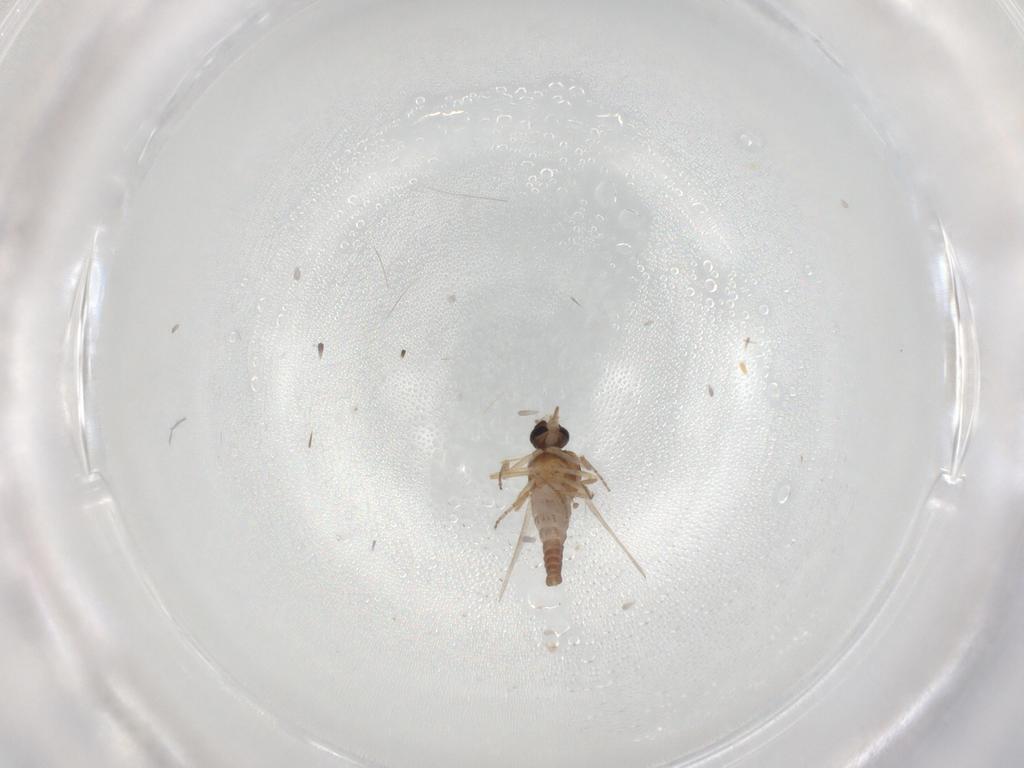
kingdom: Animalia
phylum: Arthropoda
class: Insecta
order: Diptera
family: Ceratopogonidae
